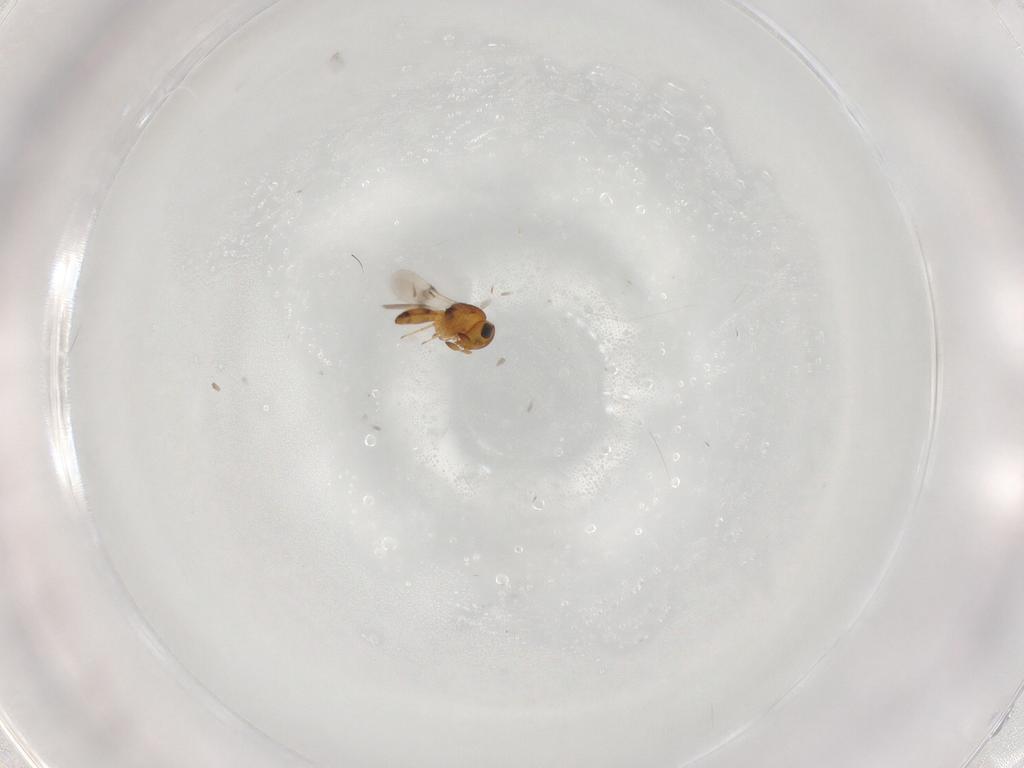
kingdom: Animalia
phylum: Arthropoda
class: Insecta
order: Hymenoptera
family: Scelionidae
